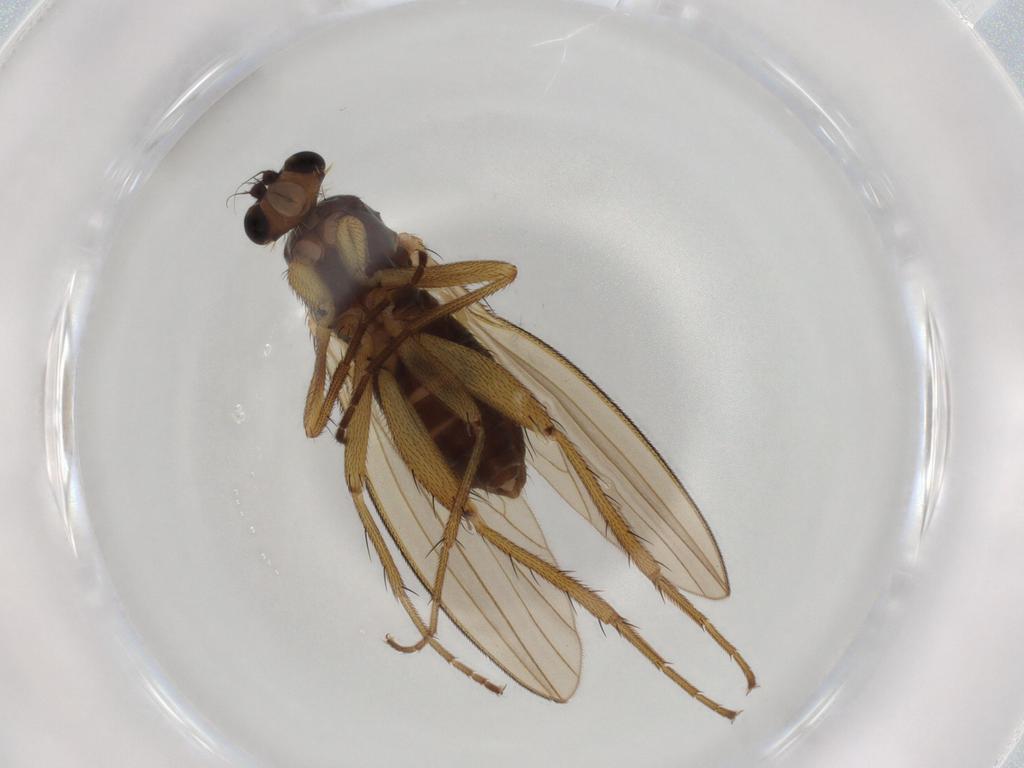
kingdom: Animalia
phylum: Arthropoda
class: Insecta
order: Diptera
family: Lonchopteridae
